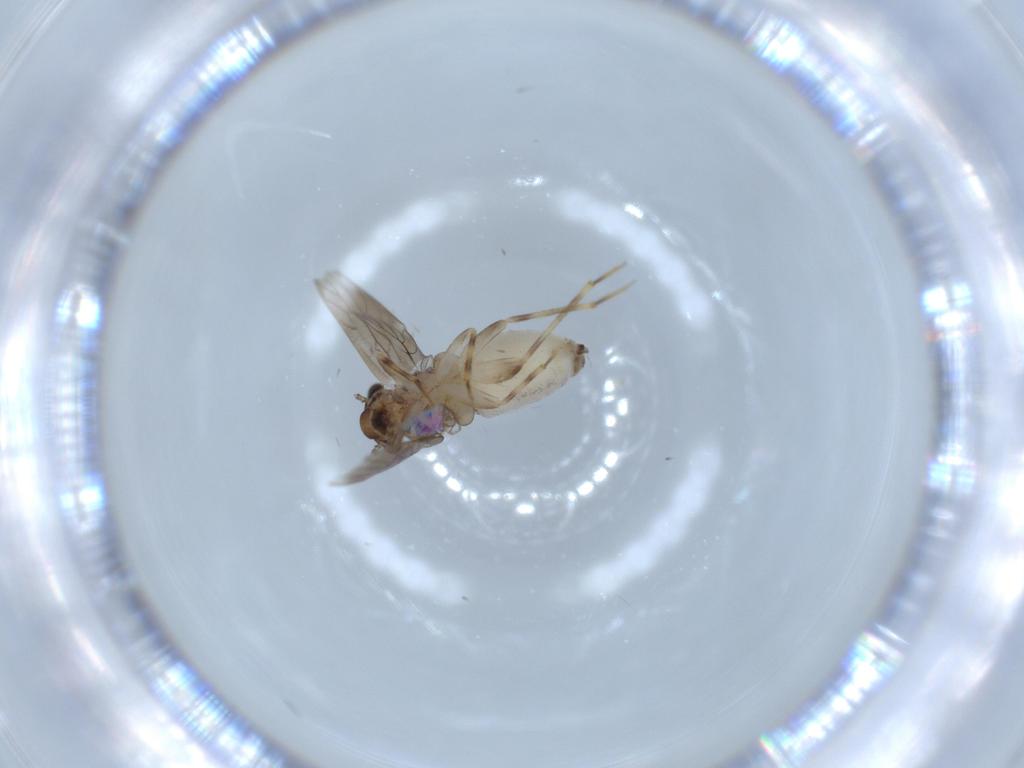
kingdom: Animalia
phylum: Arthropoda
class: Insecta
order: Psocodea
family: Lepidopsocidae
